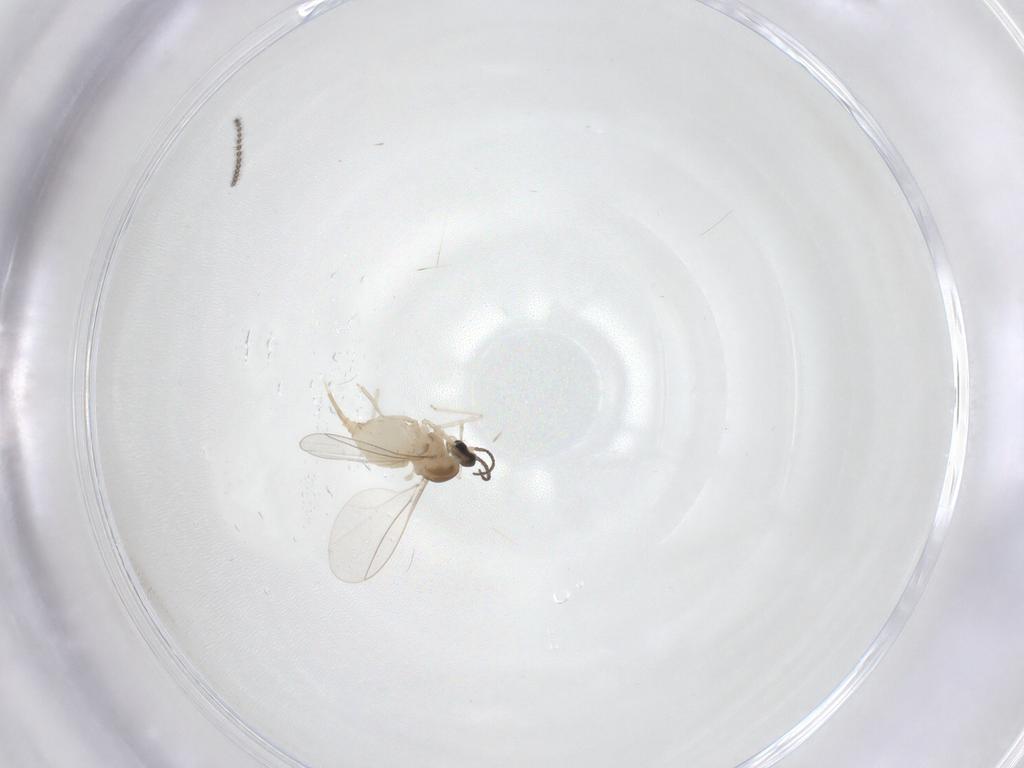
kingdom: Animalia
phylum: Arthropoda
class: Insecta
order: Diptera
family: Cecidomyiidae
